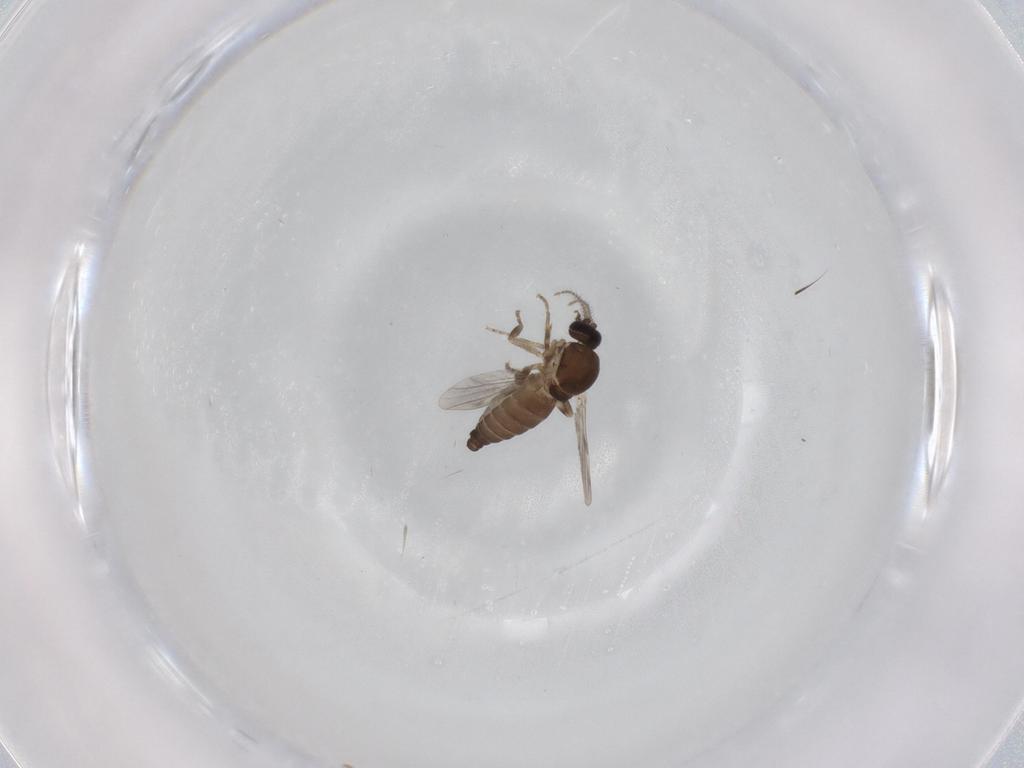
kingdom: Animalia
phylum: Arthropoda
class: Insecta
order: Diptera
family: Ceratopogonidae
